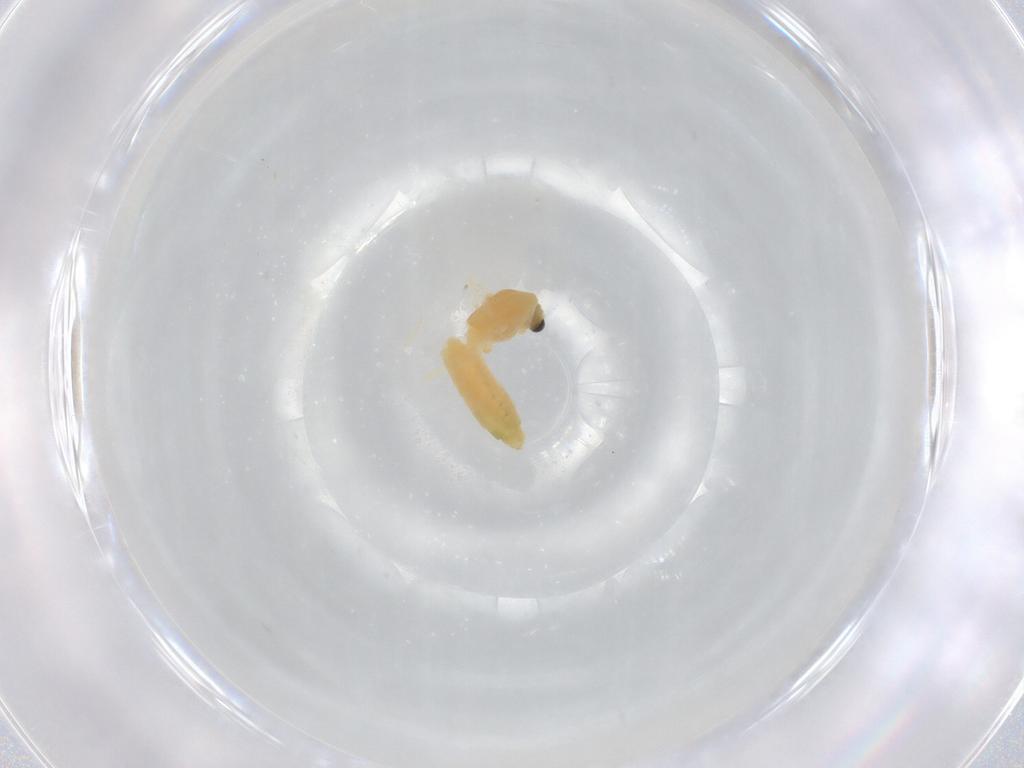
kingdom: Animalia
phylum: Arthropoda
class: Insecta
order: Diptera
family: Chironomidae
